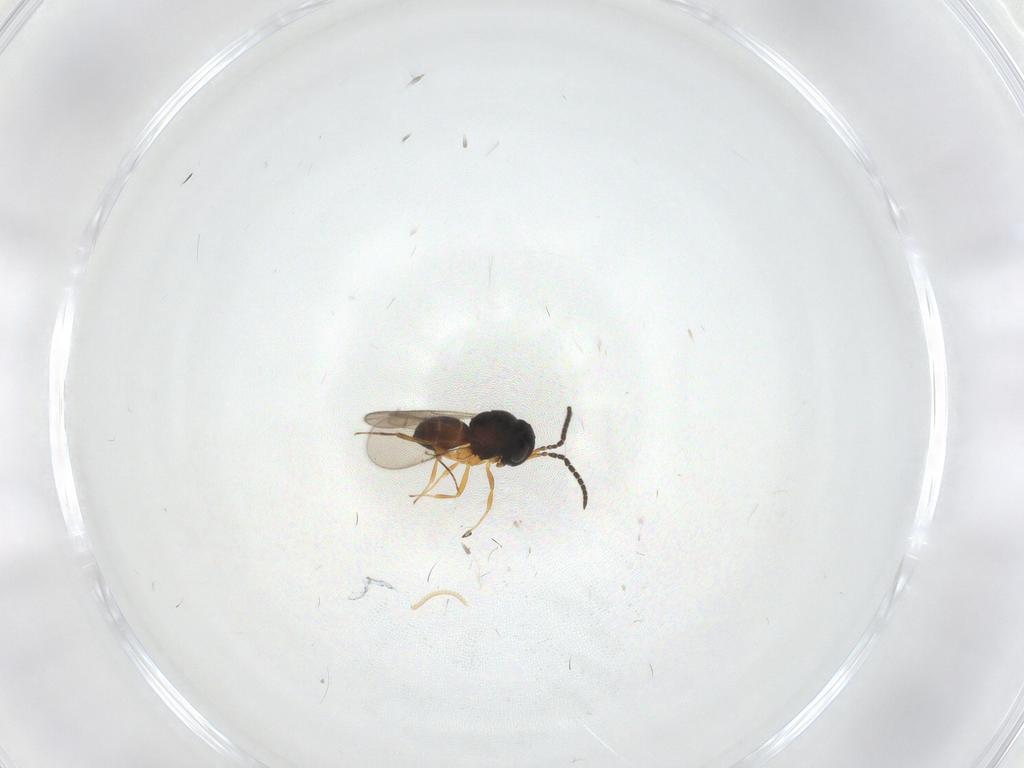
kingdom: Animalia
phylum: Arthropoda
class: Insecta
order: Hymenoptera
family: Scelionidae
